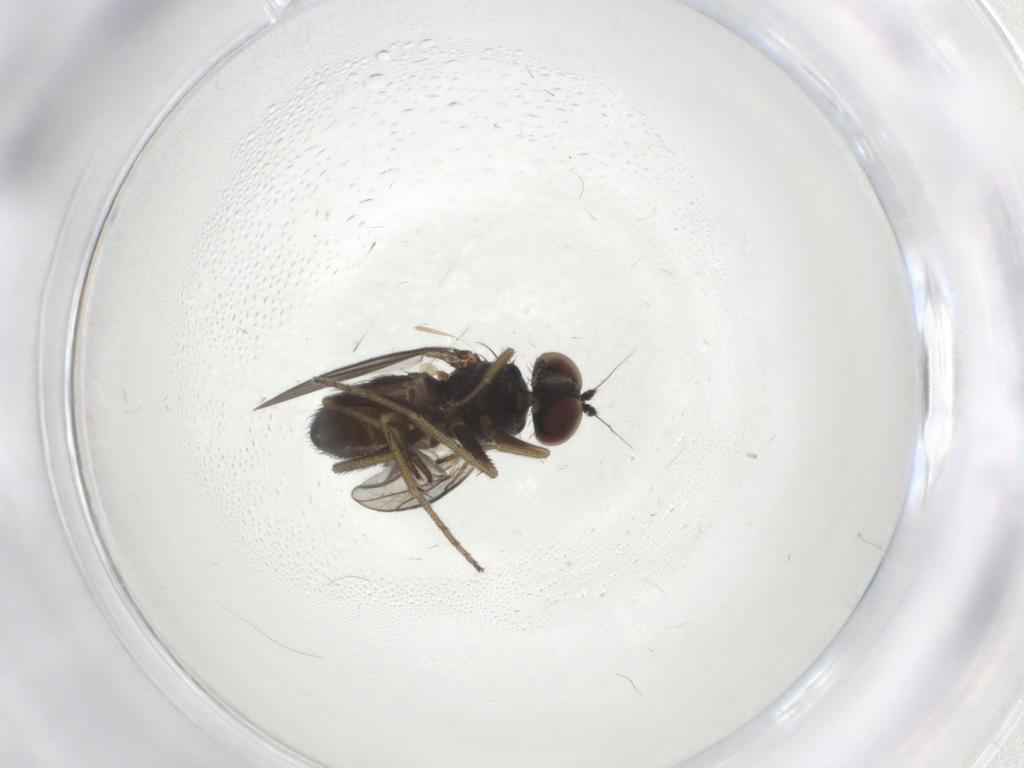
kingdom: Animalia
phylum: Arthropoda
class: Insecta
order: Diptera
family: Dolichopodidae
